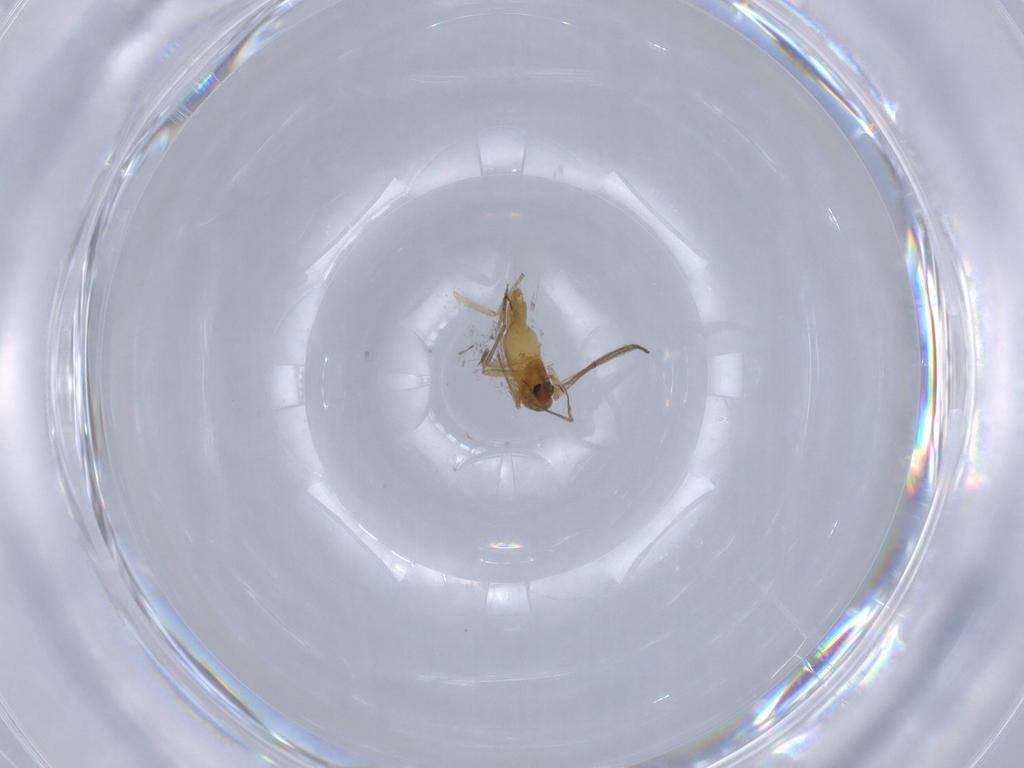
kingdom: Animalia
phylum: Arthropoda
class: Insecta
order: Diptera
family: Chironomidae
